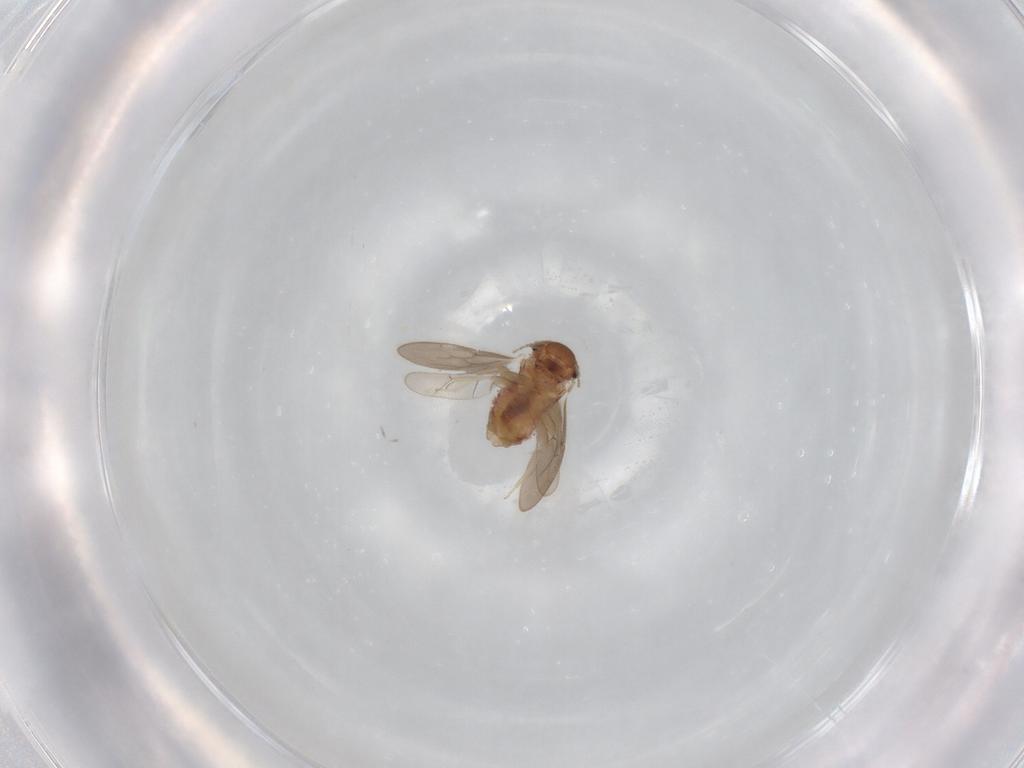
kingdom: Animalia
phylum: Arthropoda
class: Insecta
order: Psocodea
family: Archipsocidae
